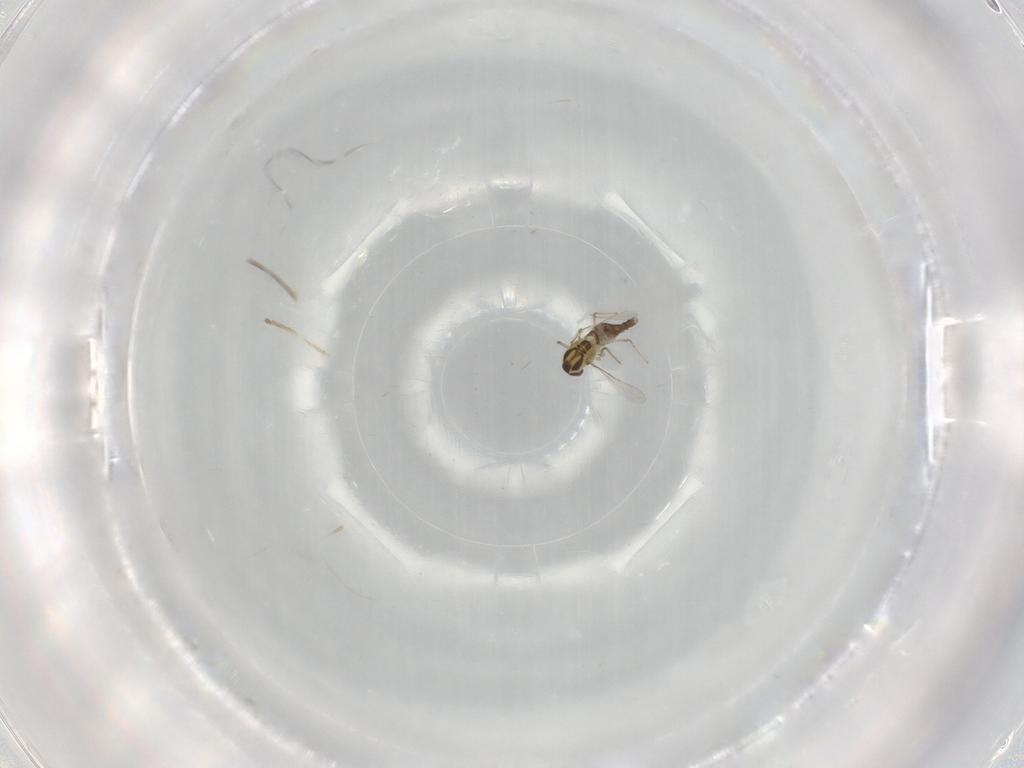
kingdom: Animalia
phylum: Arthropoda
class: Insecta
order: Diptera
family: Chironomidae
